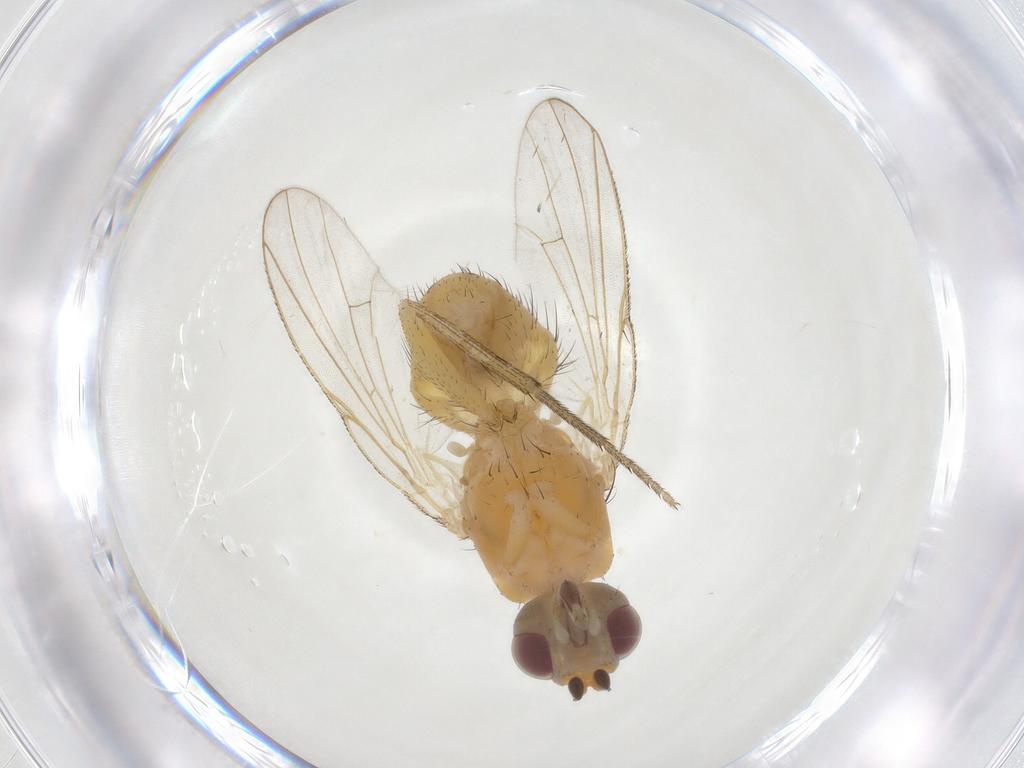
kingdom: Animalia
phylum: Arthropoda
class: Insecta
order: Diptera
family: Muscidae
